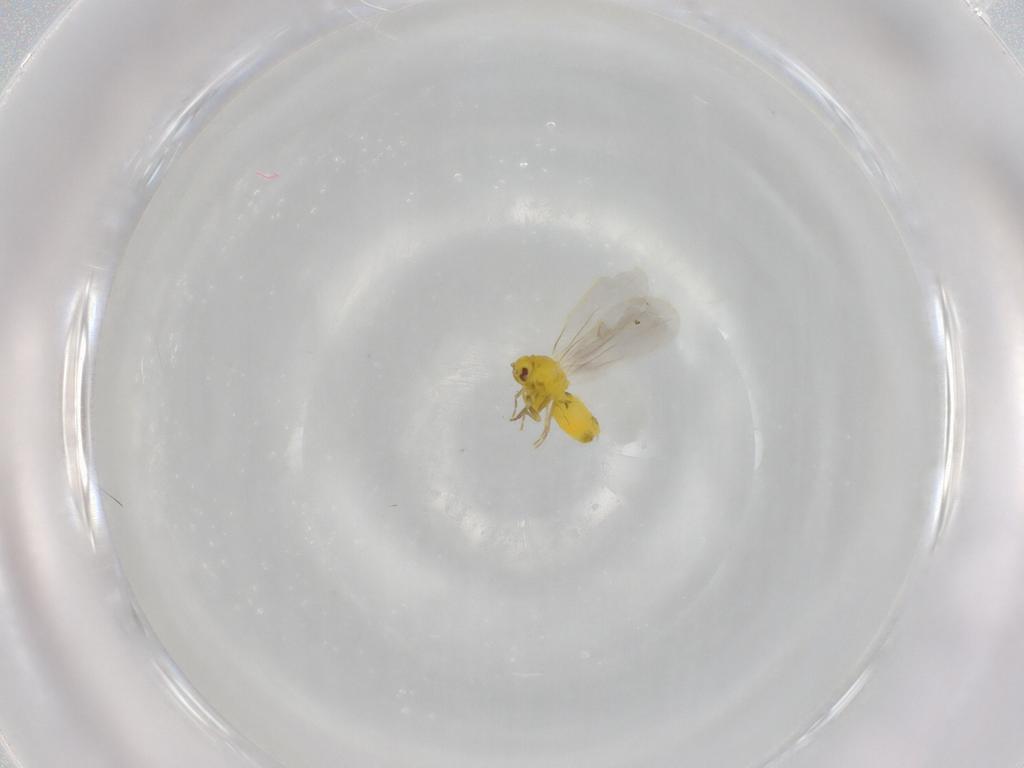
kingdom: Animalia
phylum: Arthropoda
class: Insecta
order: Hemiptera
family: Aleyrodidae
